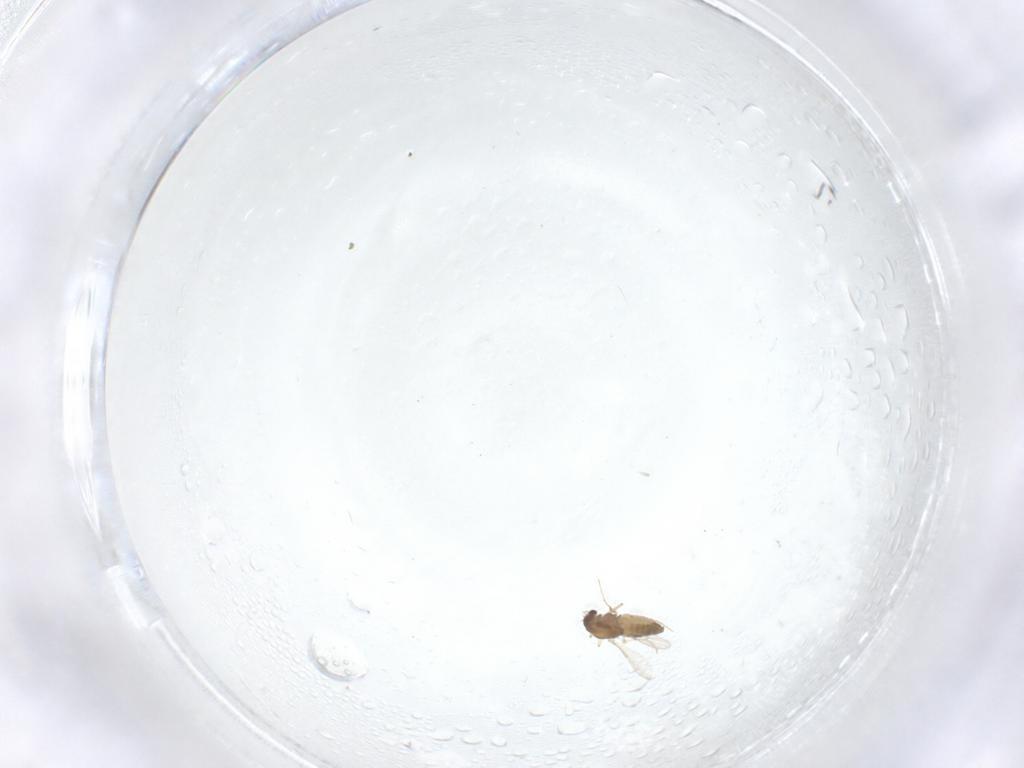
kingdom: Animalia
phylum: Arthropoda
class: Insecta
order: Diptera
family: Chironomidae
